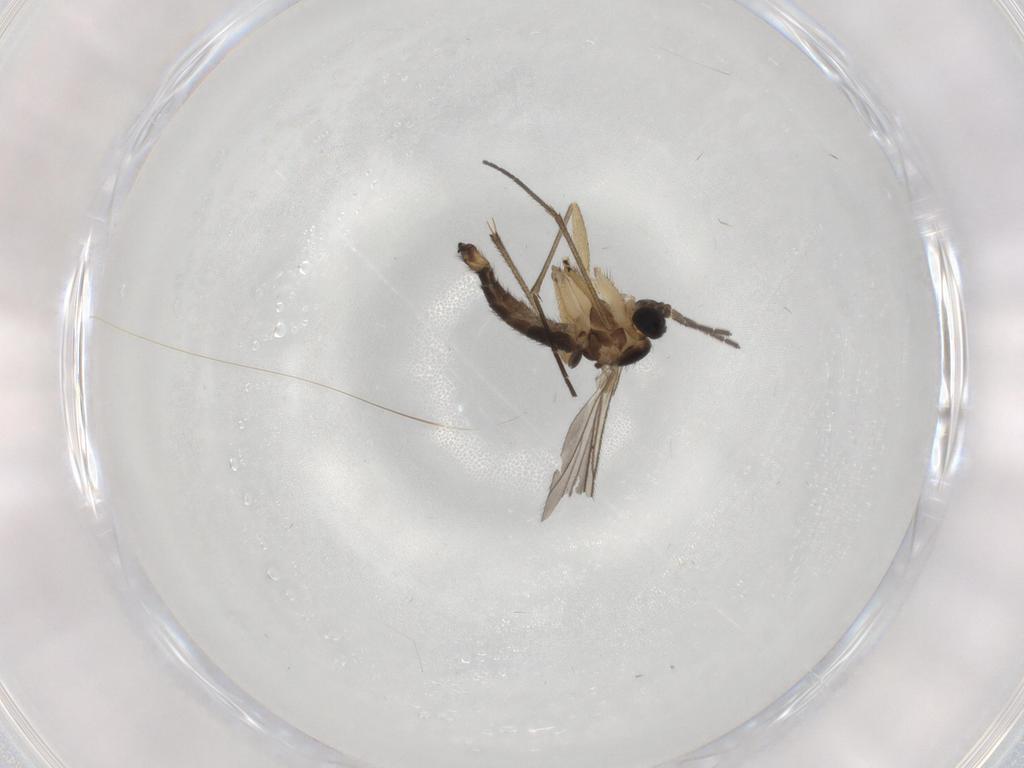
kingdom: Animalia
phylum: Arthropoda
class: Insecta
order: Diptera
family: Sciaridae
